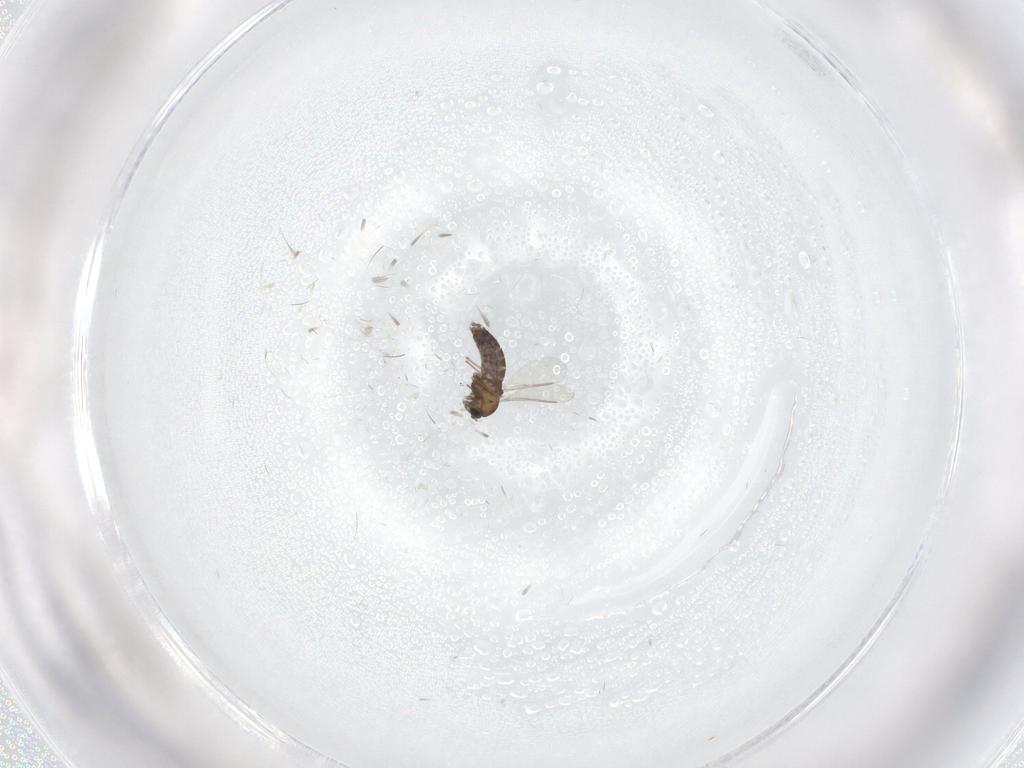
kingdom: Animalia
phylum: Arthropoda
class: Insecta
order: Diptera
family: Chironomidae
